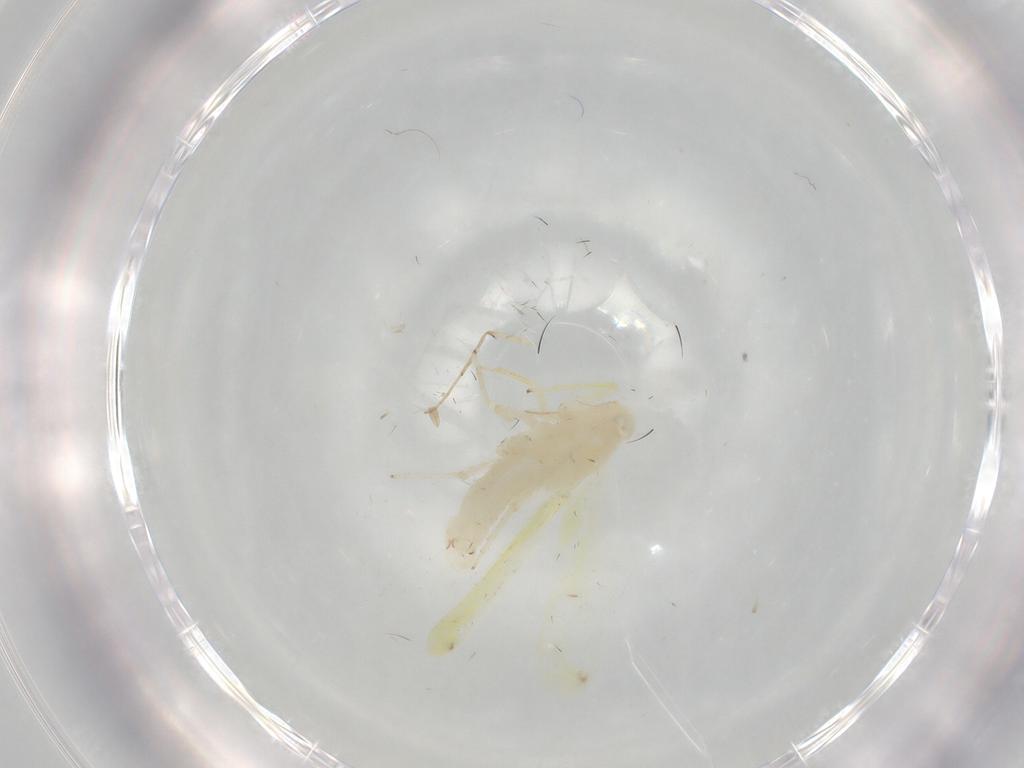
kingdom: Animalia
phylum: Arthropoda
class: Insecta
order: Hemiptera
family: Cicadellidae
